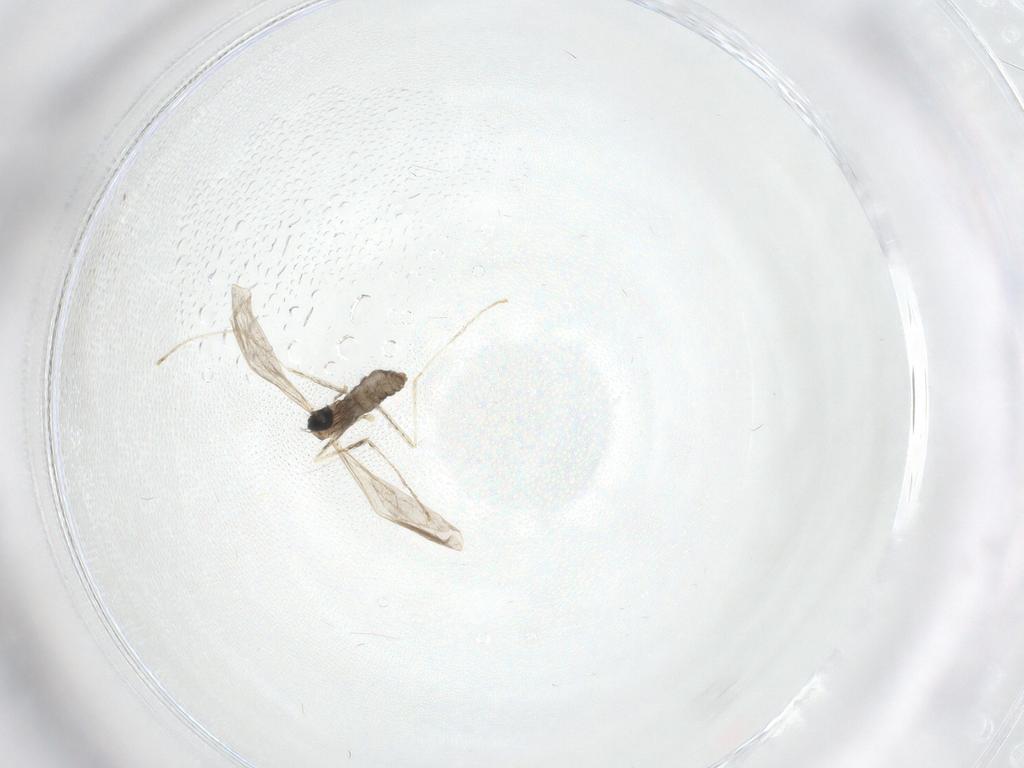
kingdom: Animalia
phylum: Arthropoda
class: Insecta
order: Diptera
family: Cecidomyiidae
